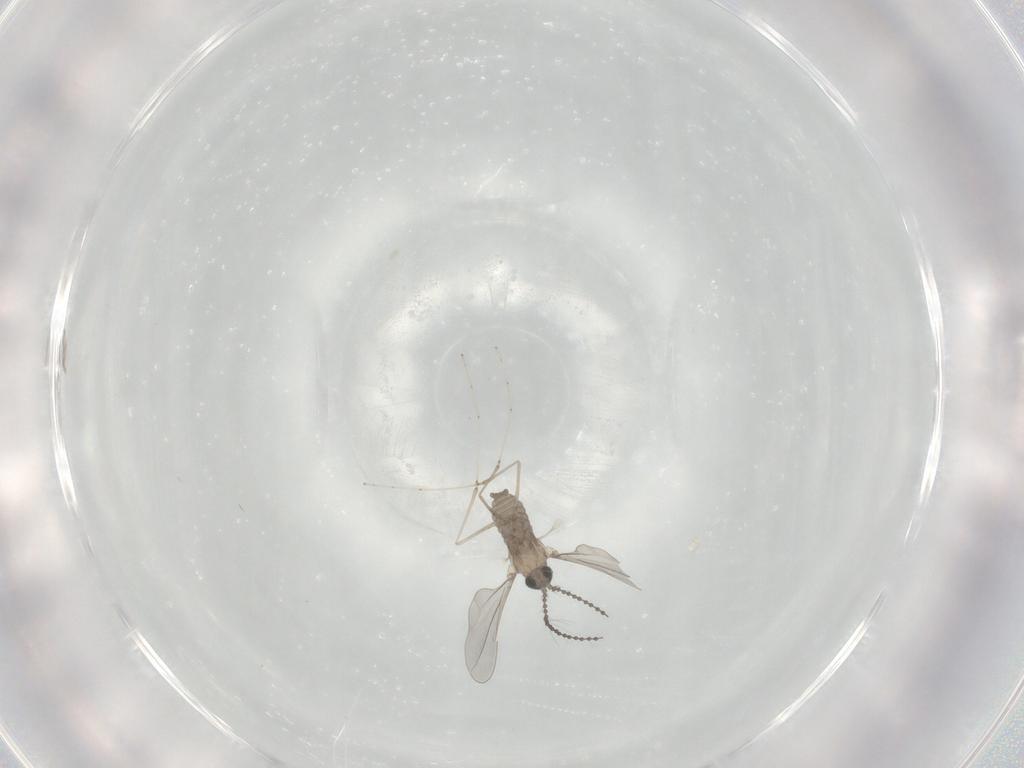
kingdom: Animalia
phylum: Arthropoda
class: Insecta
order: Diptera
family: Cecidomyiidae
